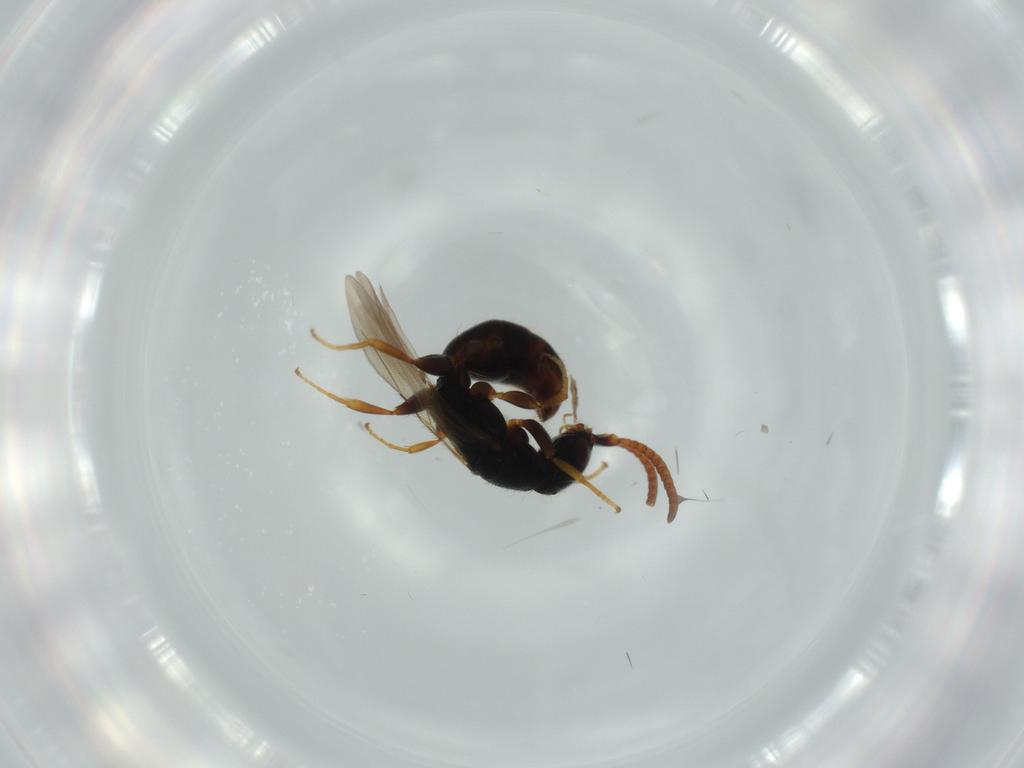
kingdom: Animalia
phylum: Arthropoda
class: Insecta
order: Hymenoptera
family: Bethylidae
